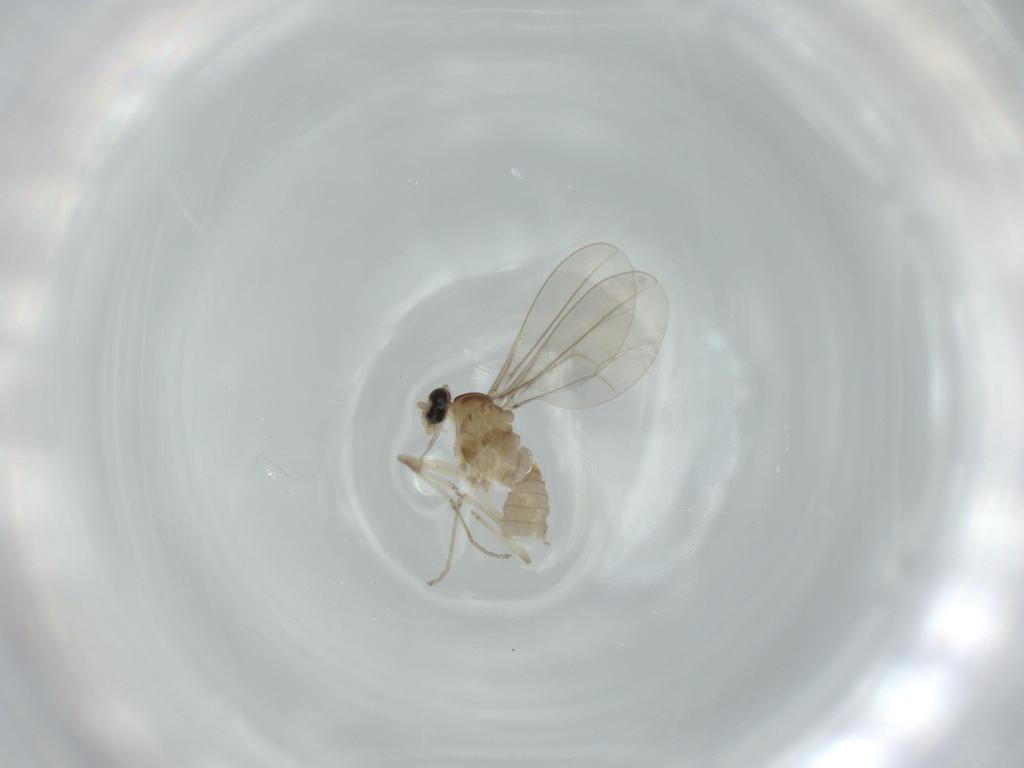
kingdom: Animalia
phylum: Arthropoda
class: Insecta
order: Diptera
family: Cecidomyiidae
